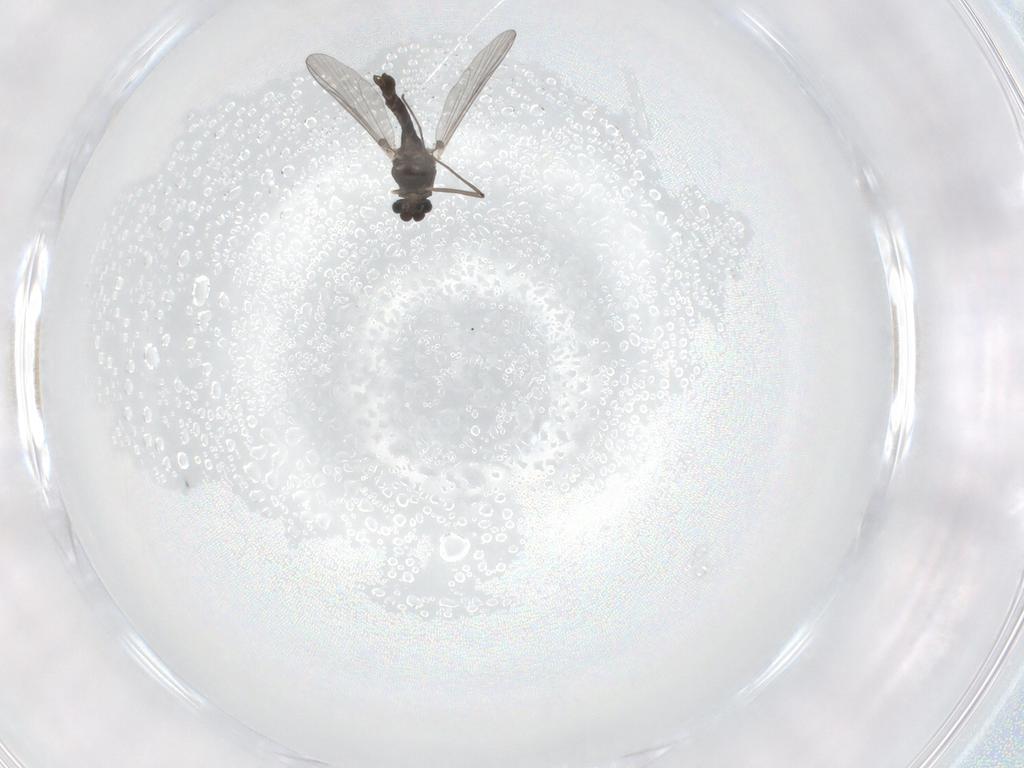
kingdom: Animalia
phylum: Arthropoda
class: Insecta
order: Diptera
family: Chironomidae
